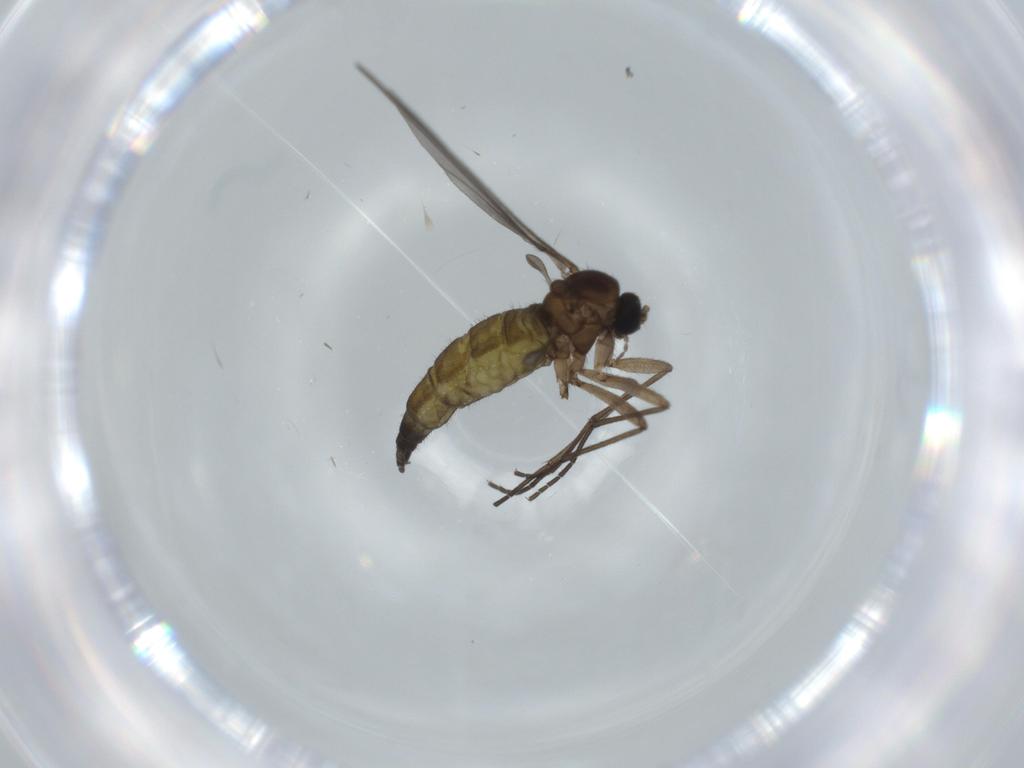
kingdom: Animalia
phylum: Arthropoda
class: Insecta
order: Diptera
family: Sciaridae
